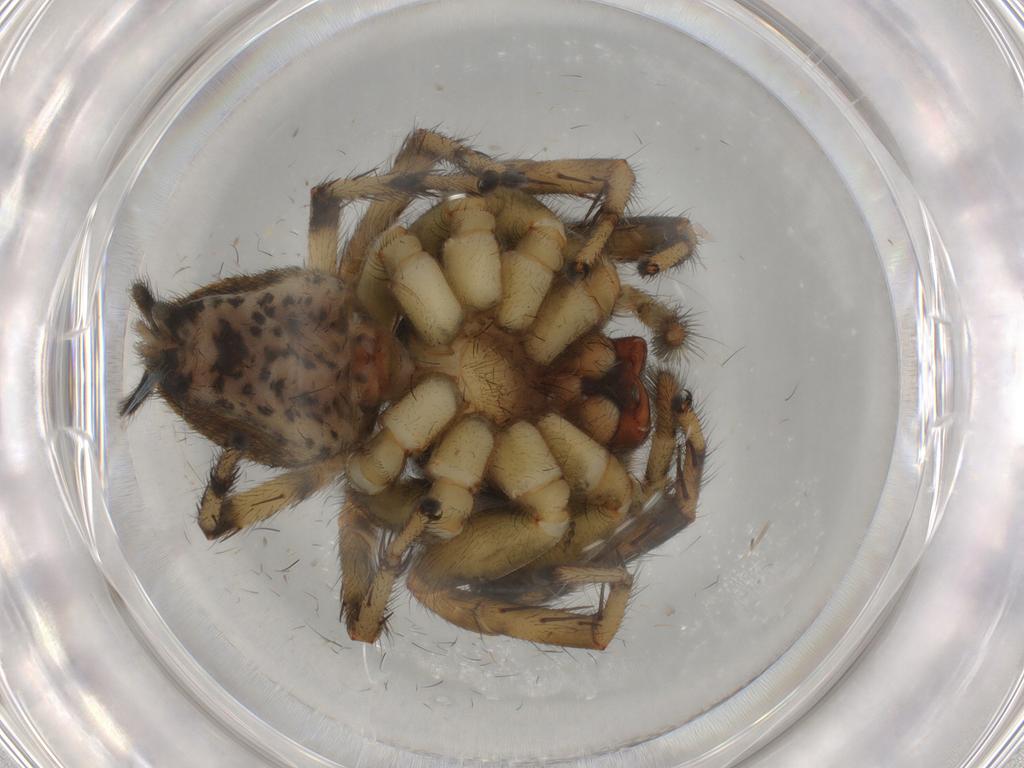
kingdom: Animalia
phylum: Arthropoda
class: Arachnida
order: Araneae
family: Salticidae
